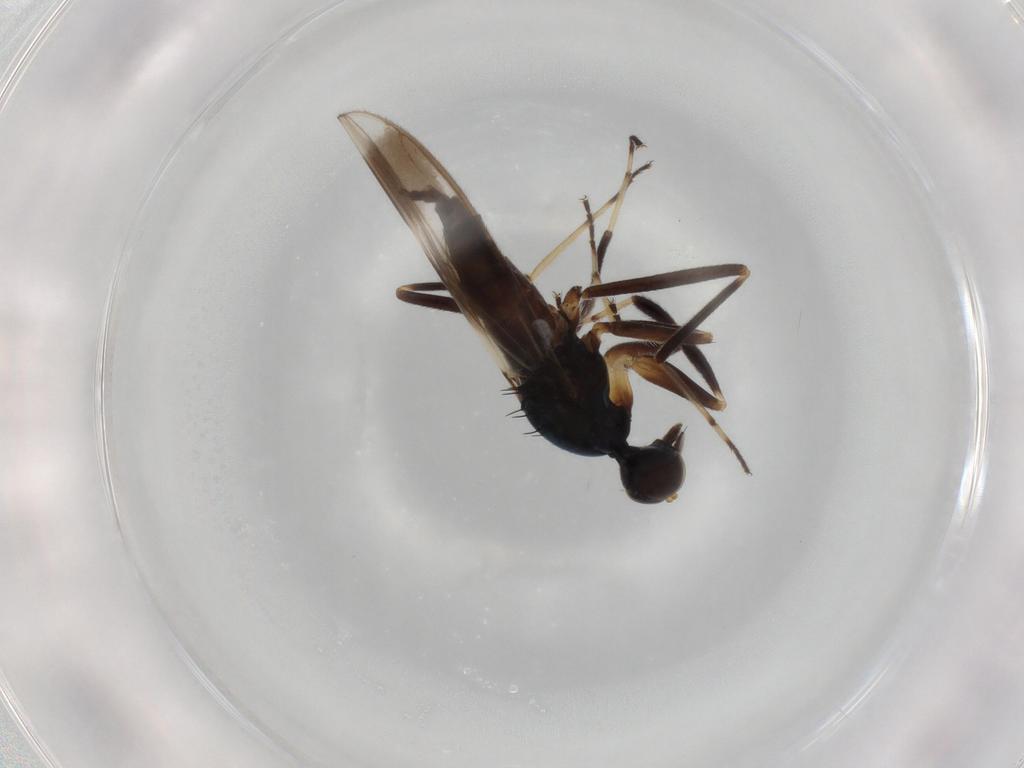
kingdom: Animalia
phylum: Arthropoda
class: Insecta
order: Diptera
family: Hybotidae
